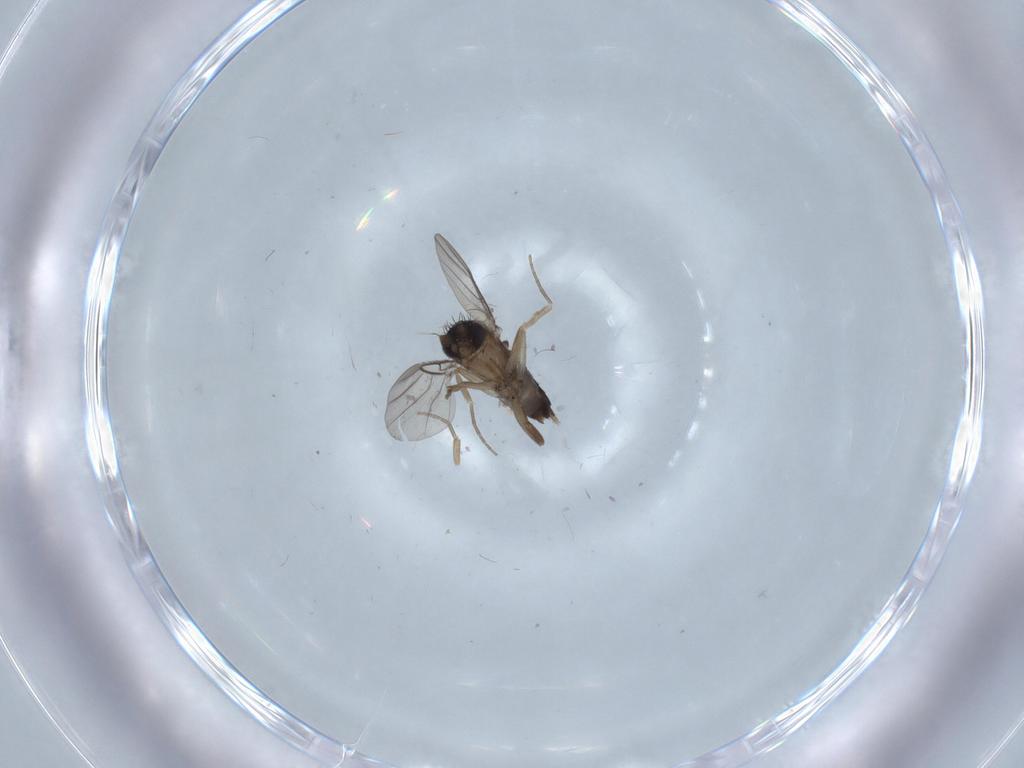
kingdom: Animalia
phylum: Arthropoda
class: Insecta
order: Diptera
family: Phoridae
